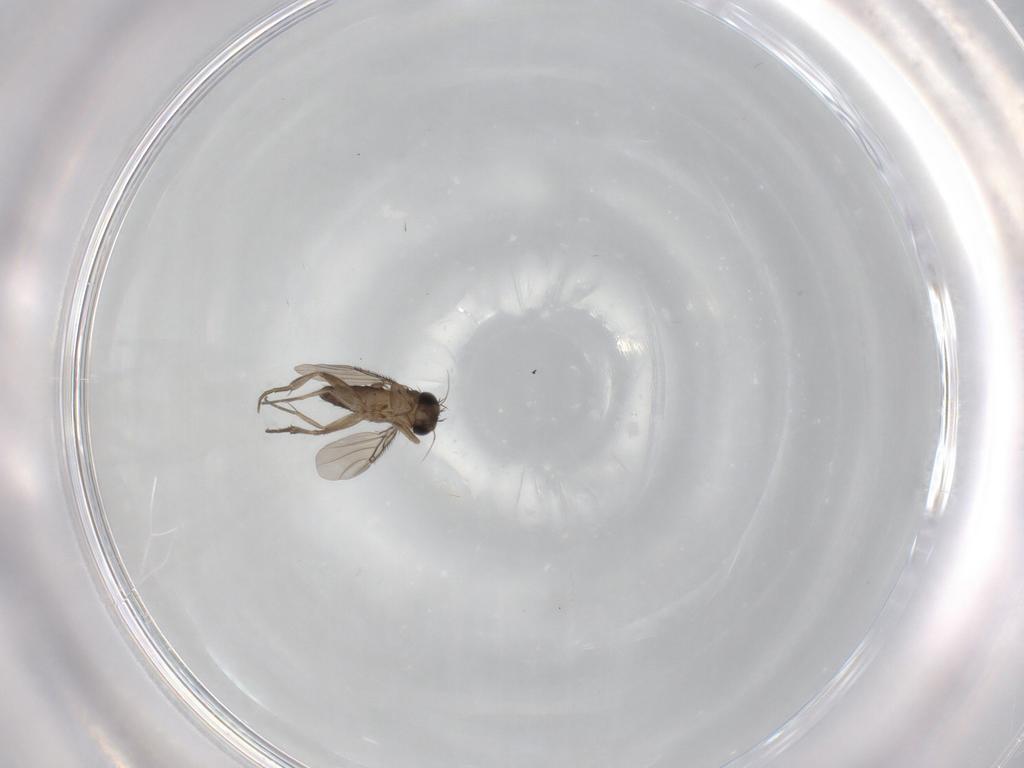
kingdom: Animalia
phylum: Arthropoda
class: Insecta
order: Diptera
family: Phoridae
